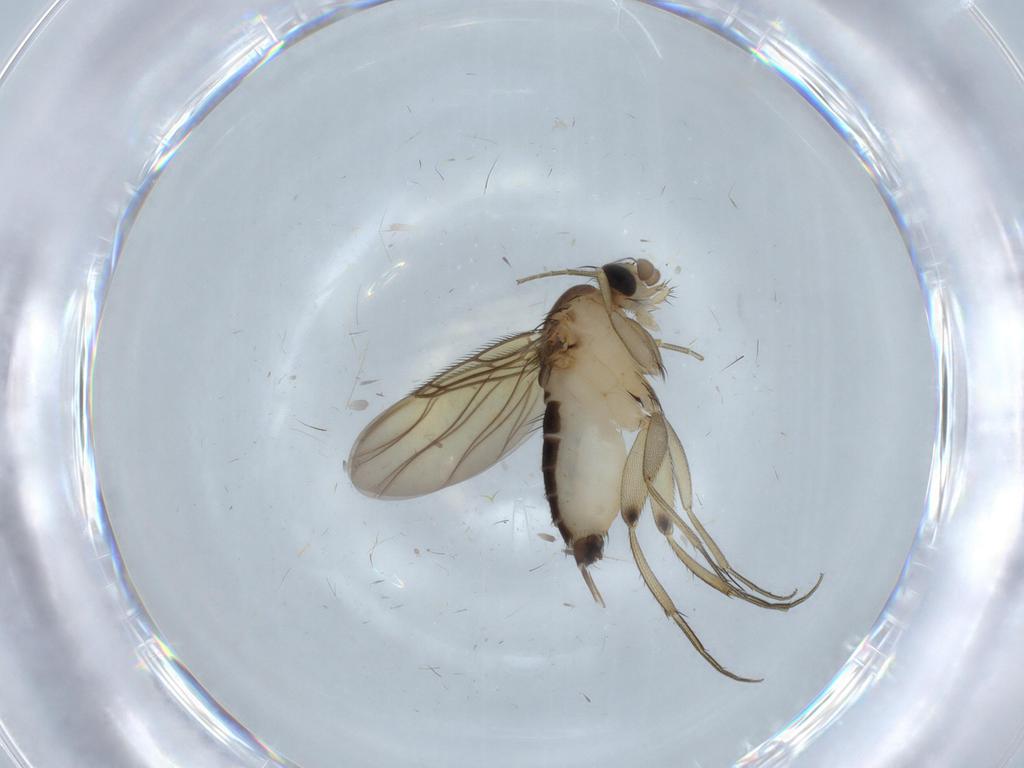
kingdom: Animalia
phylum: Arthropoda
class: Insecta
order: Diptera
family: Phoridae
